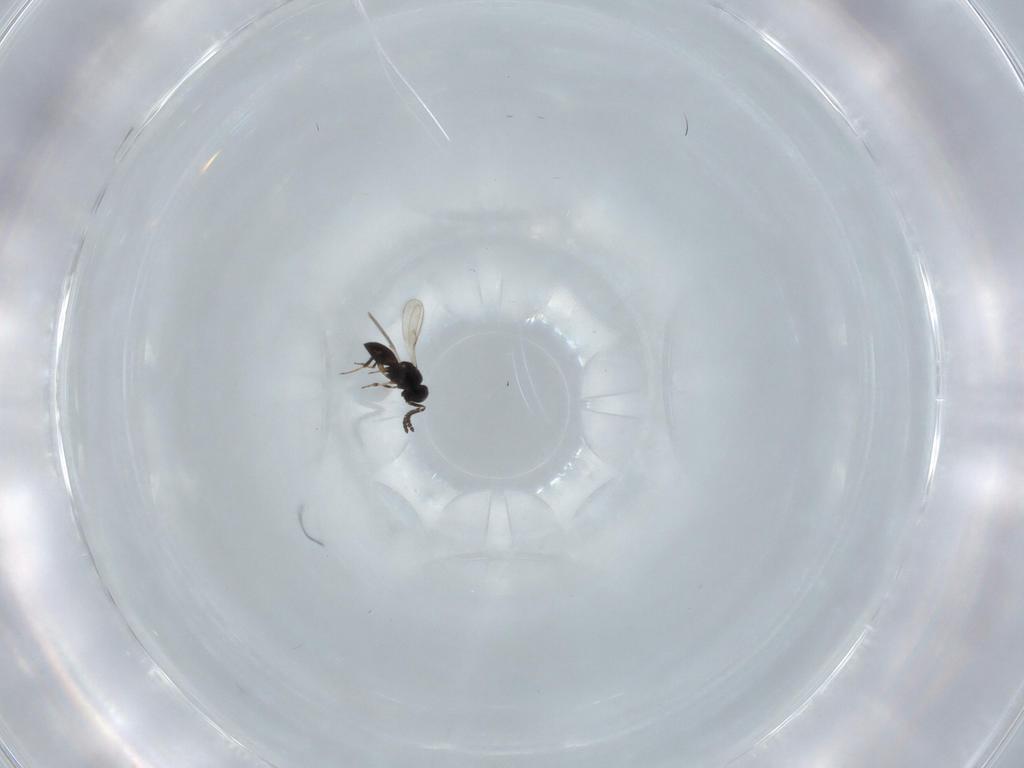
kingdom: Animalia
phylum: Arthropoda
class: Insecta
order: Hymenoptera
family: Scelionidae
